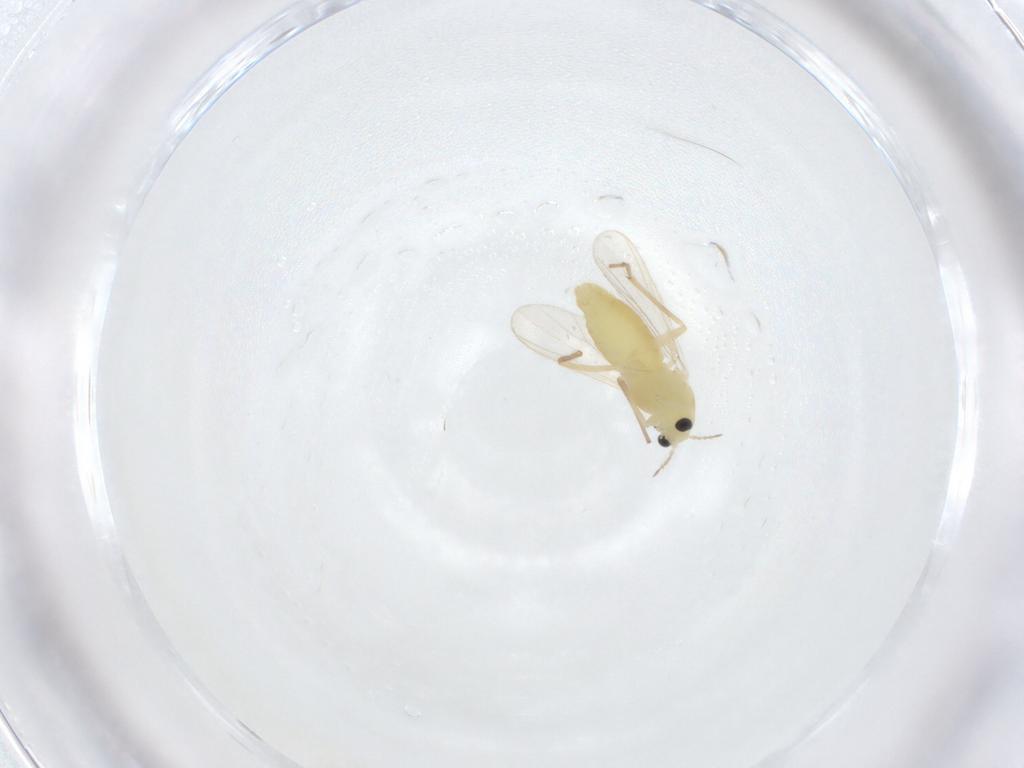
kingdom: Animalia
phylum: Arthropoda
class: Insecta
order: Diptera
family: Chironomidae
